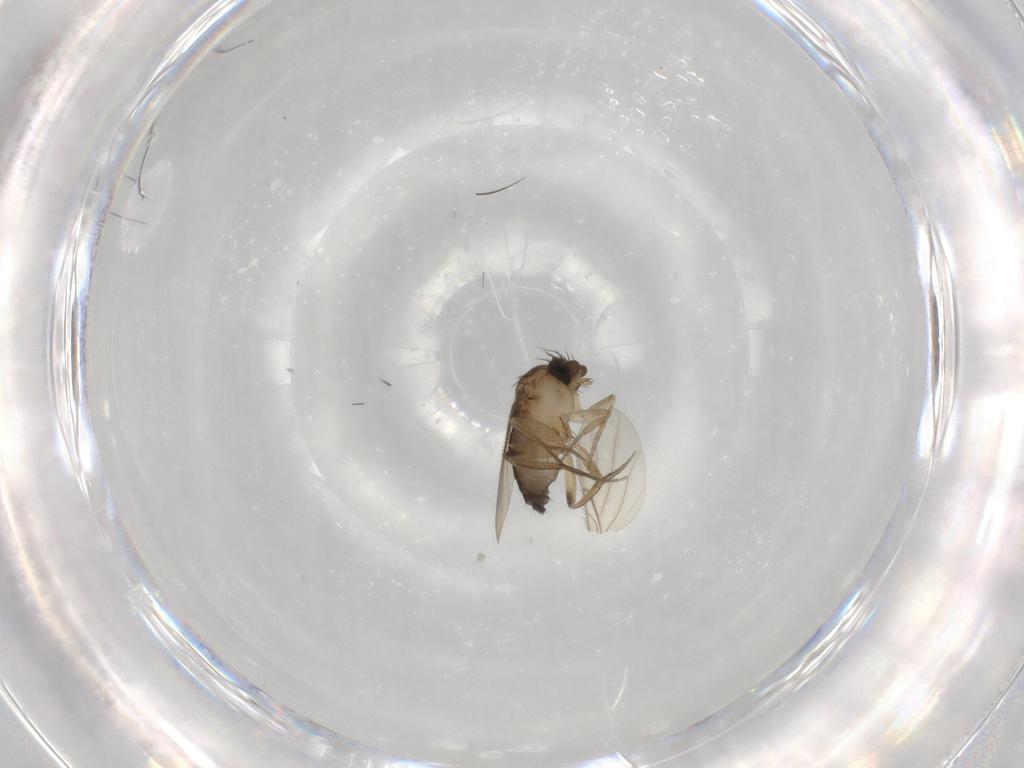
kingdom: Animalia
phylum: Arthropoda
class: Insecta
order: Diptera
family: Phoridae
